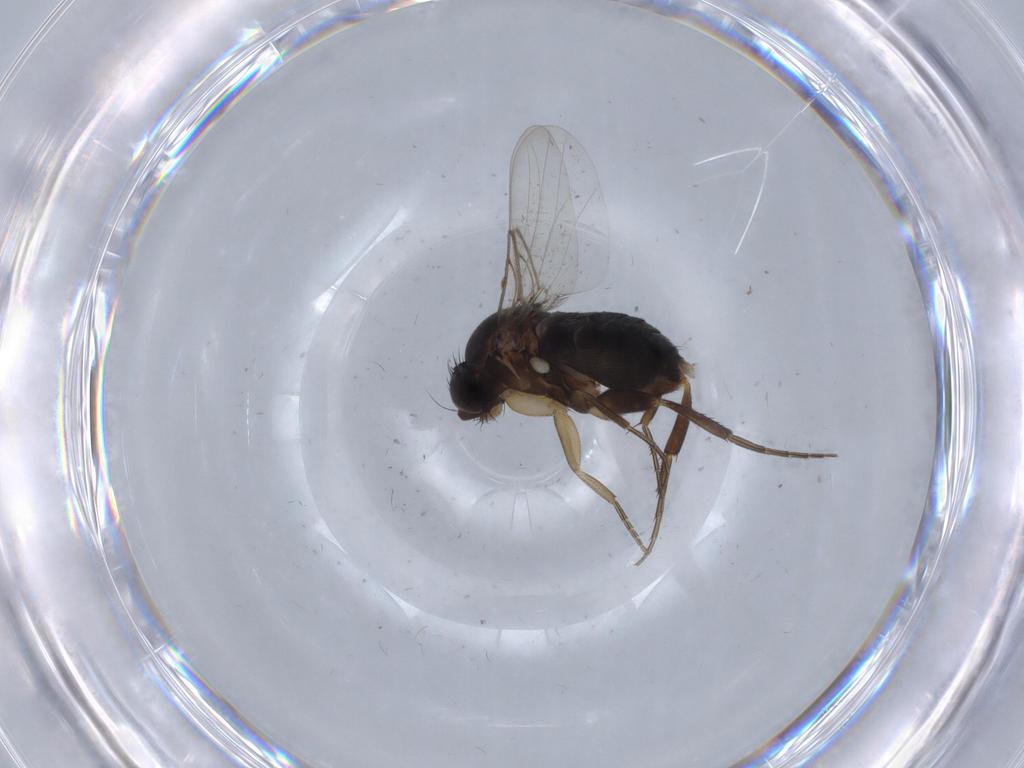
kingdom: Animalia
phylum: Arthropoda
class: Insecta
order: Diptera
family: Phoridae
